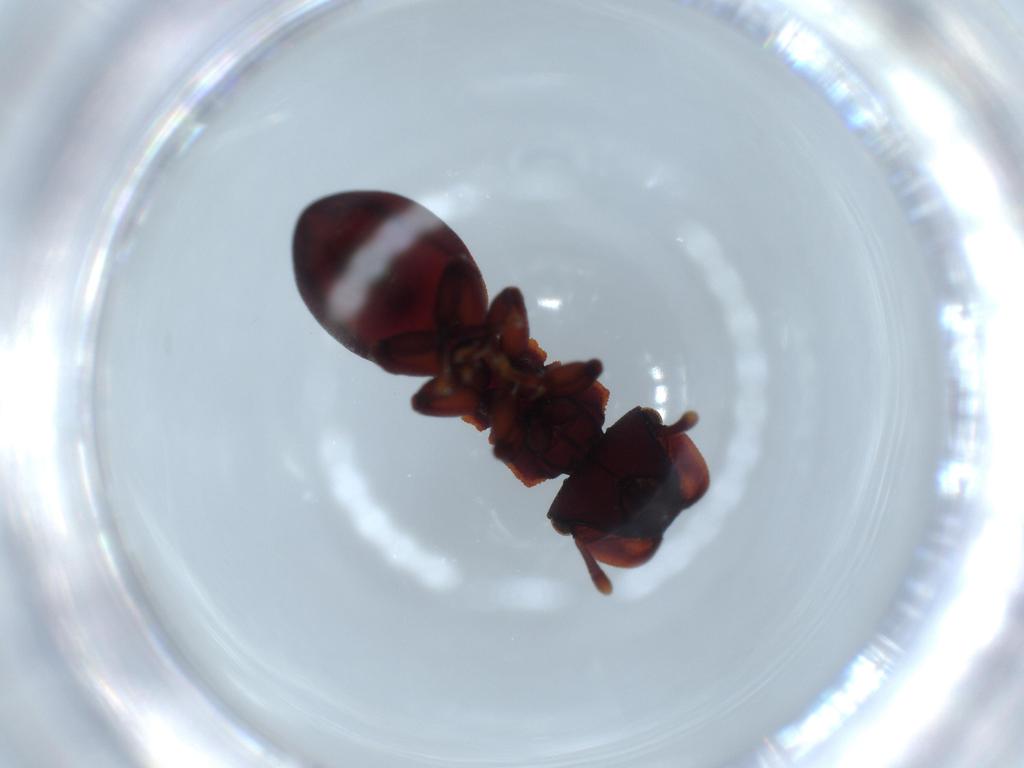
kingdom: Animalia
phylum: Arthropoda
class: Insecta
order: Hymenoptera
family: Formicidae
